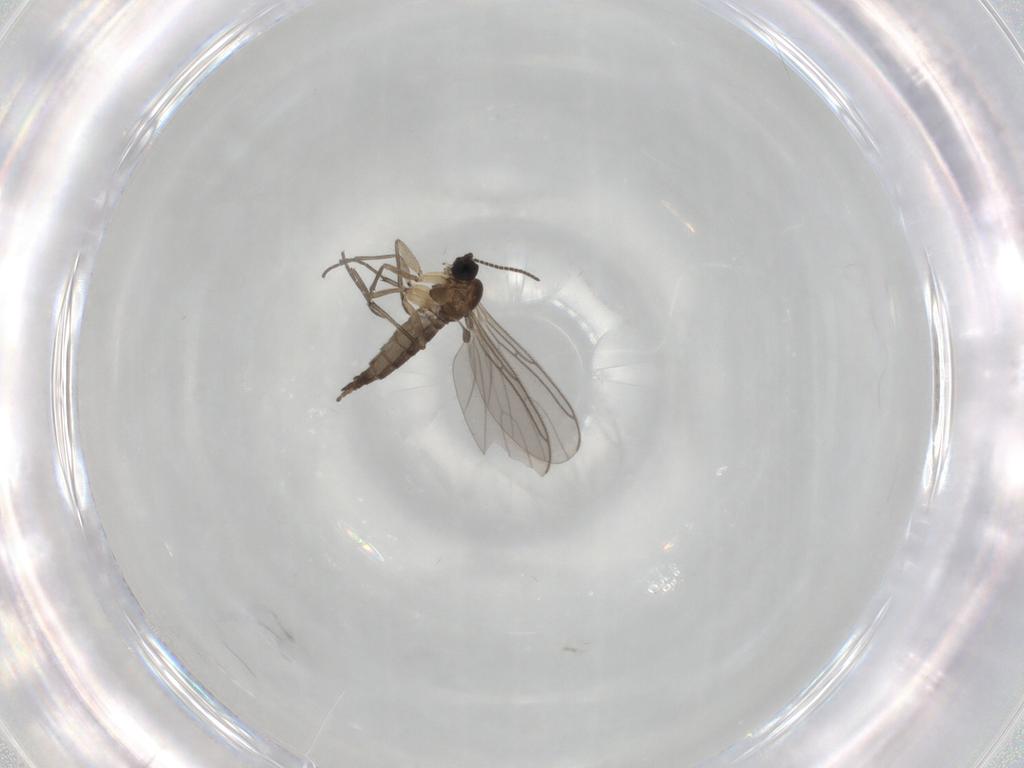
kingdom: Animalia
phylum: Arthropoda
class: Insecta
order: Diptera
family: Sciaridae
